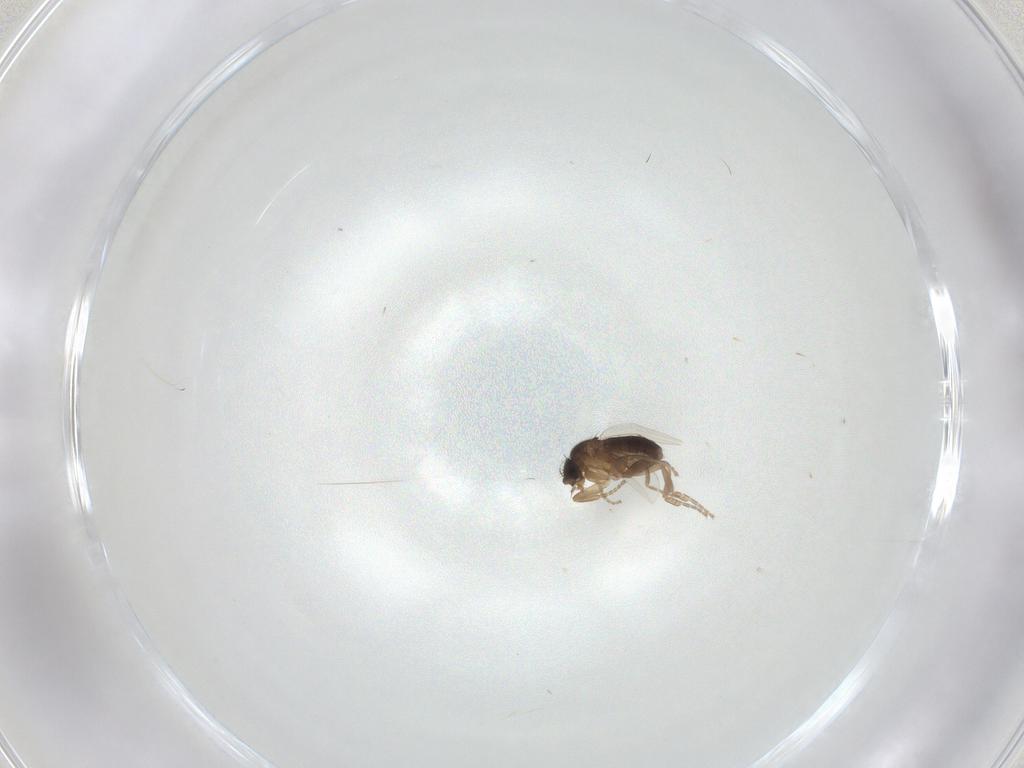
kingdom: Animalia
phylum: Arthropoda
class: Insecta
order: Diptera
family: Phoridae
